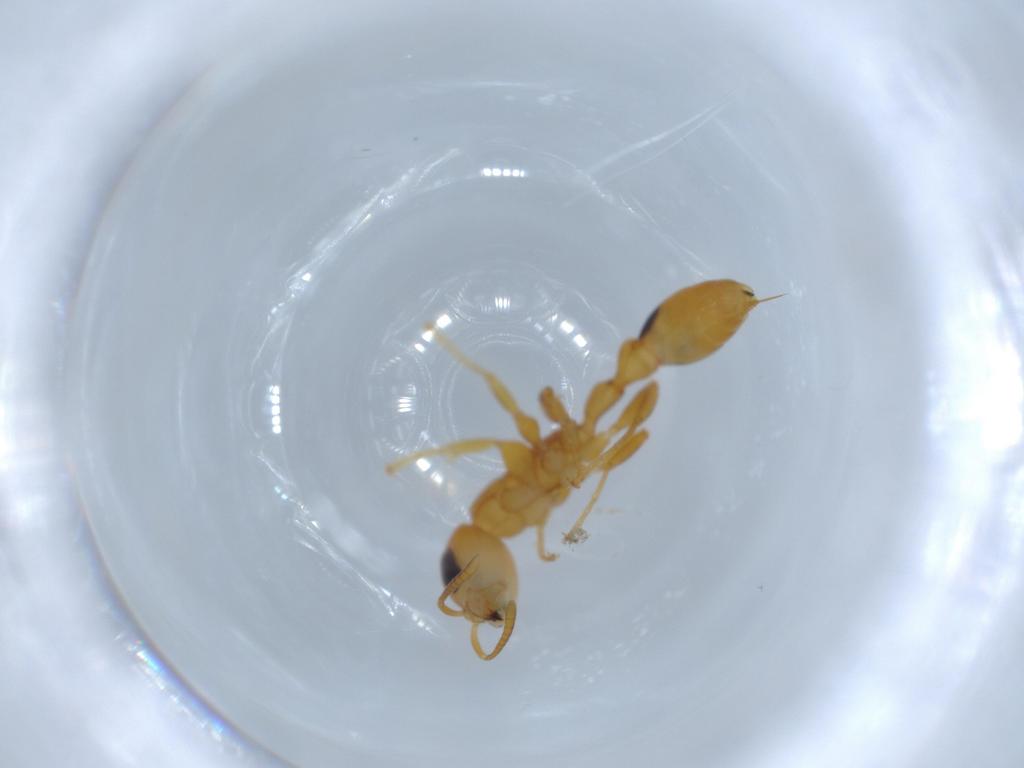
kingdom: Animalia
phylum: Arthropoda
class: Insecta
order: Hymenoptera
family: Formicidae
